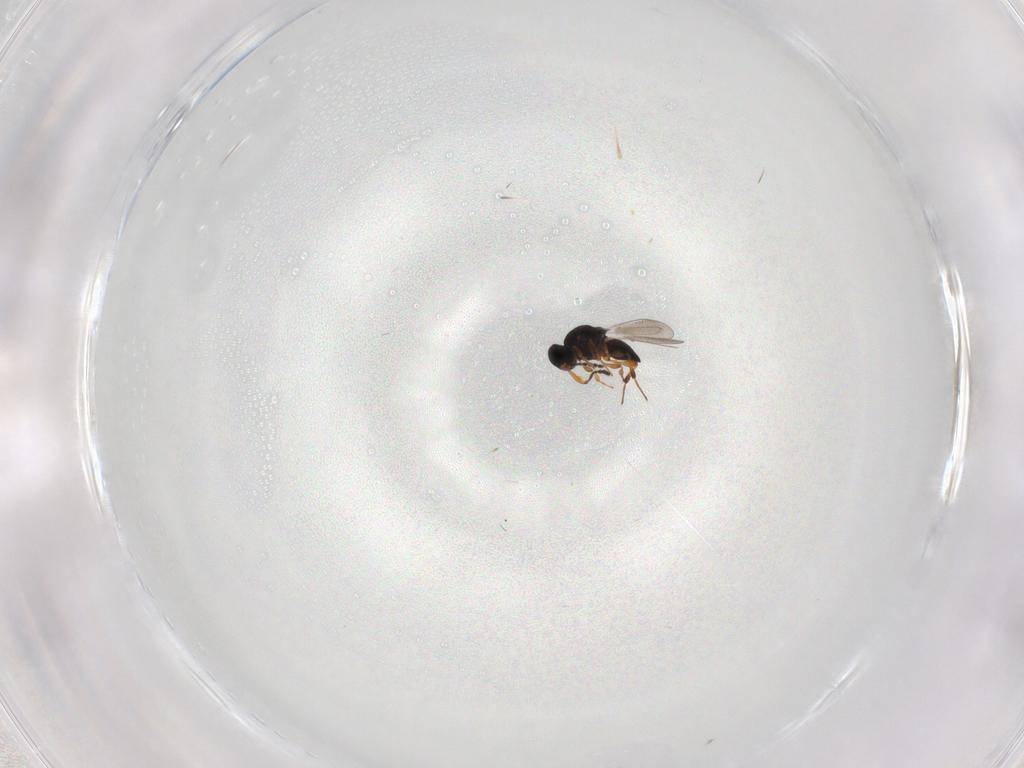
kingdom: Animalia
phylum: Arthropoda
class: Insecta
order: Hymenoptera
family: Platygastridae
